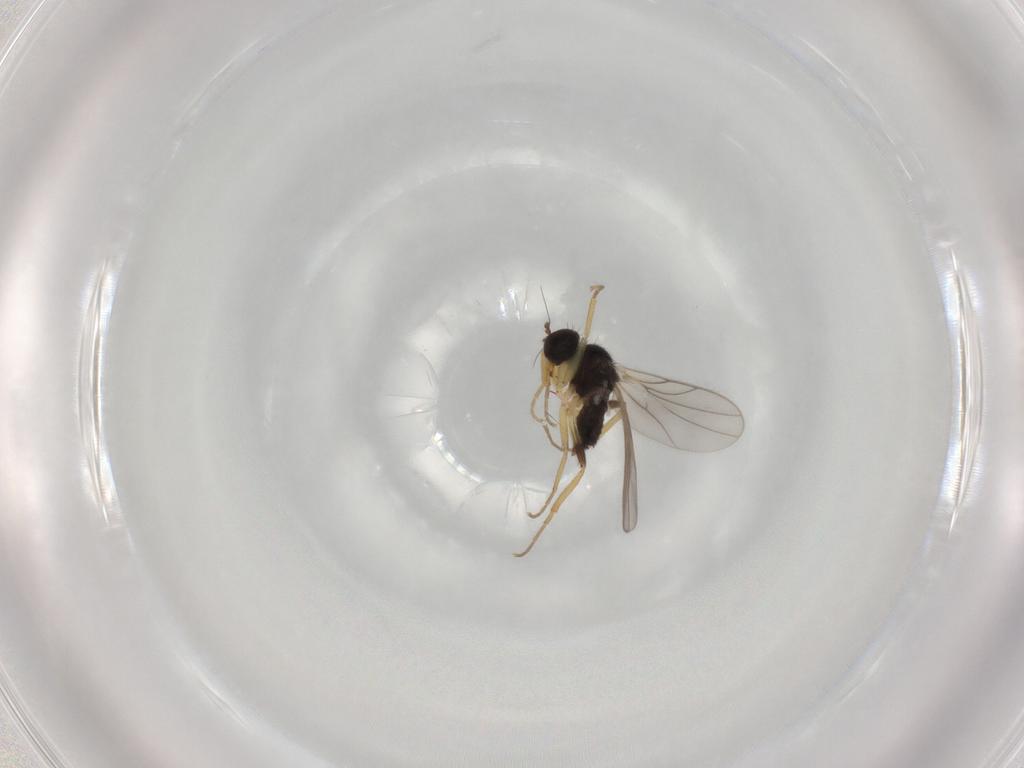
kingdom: Animalia
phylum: Arthropoda
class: Insecta
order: Diptera
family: Hybotidae
